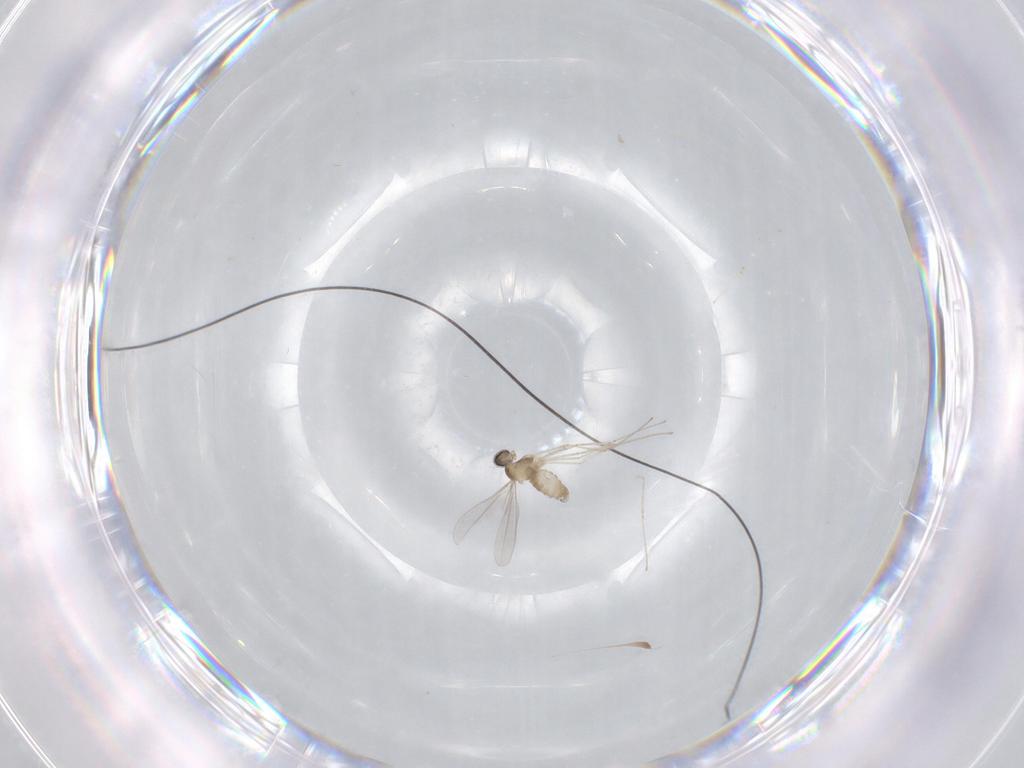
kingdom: Animalia
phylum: Arthropoda
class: Insecta
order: Diptera
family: Cecidomyiidae
